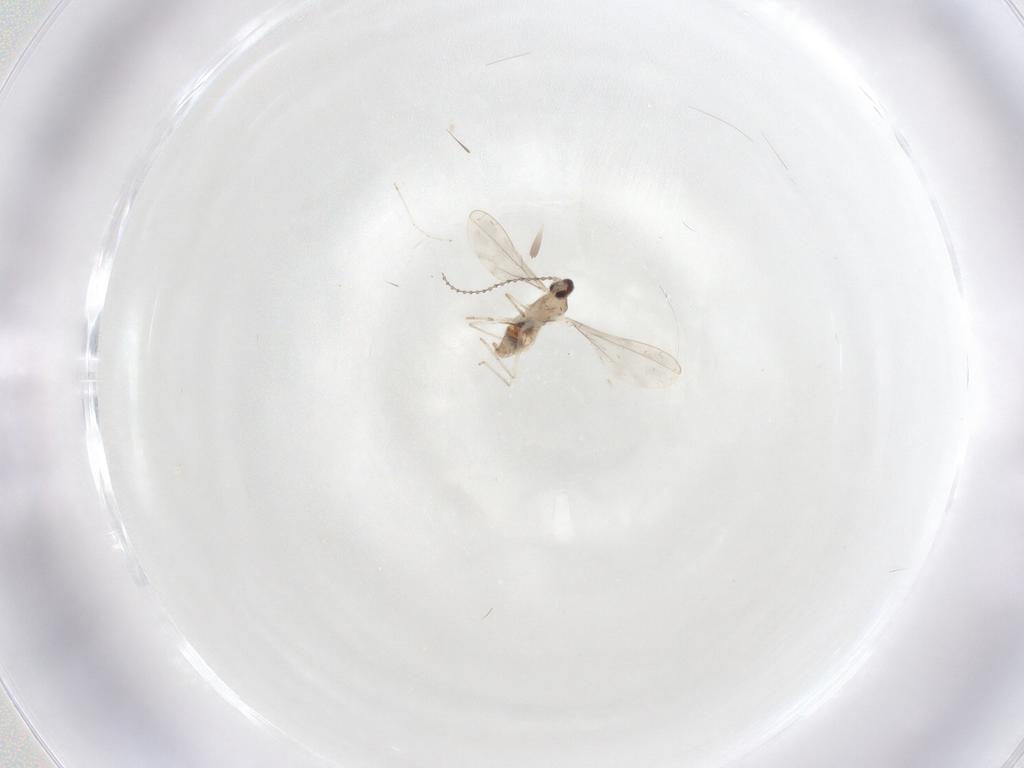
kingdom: Animalia
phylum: Arthropoda
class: Insecta
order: Diptera
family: Cecidomyiidae
